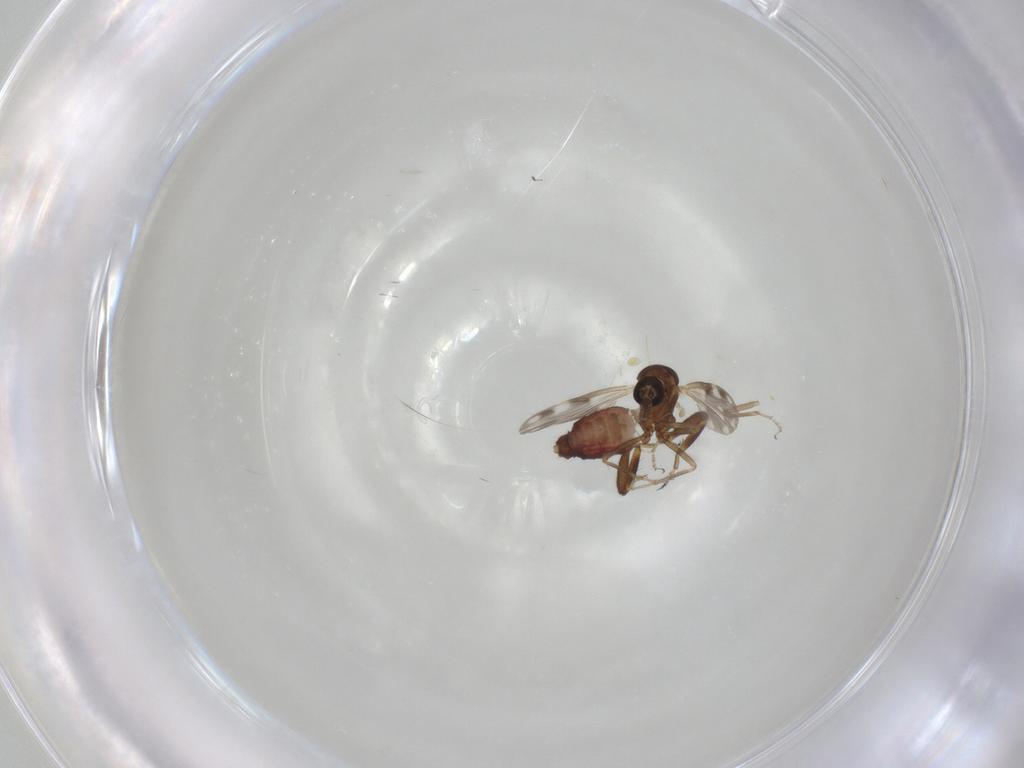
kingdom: Animalia
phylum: Arthropoda
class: Insecta
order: Diptera
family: Ceratopogonidae
